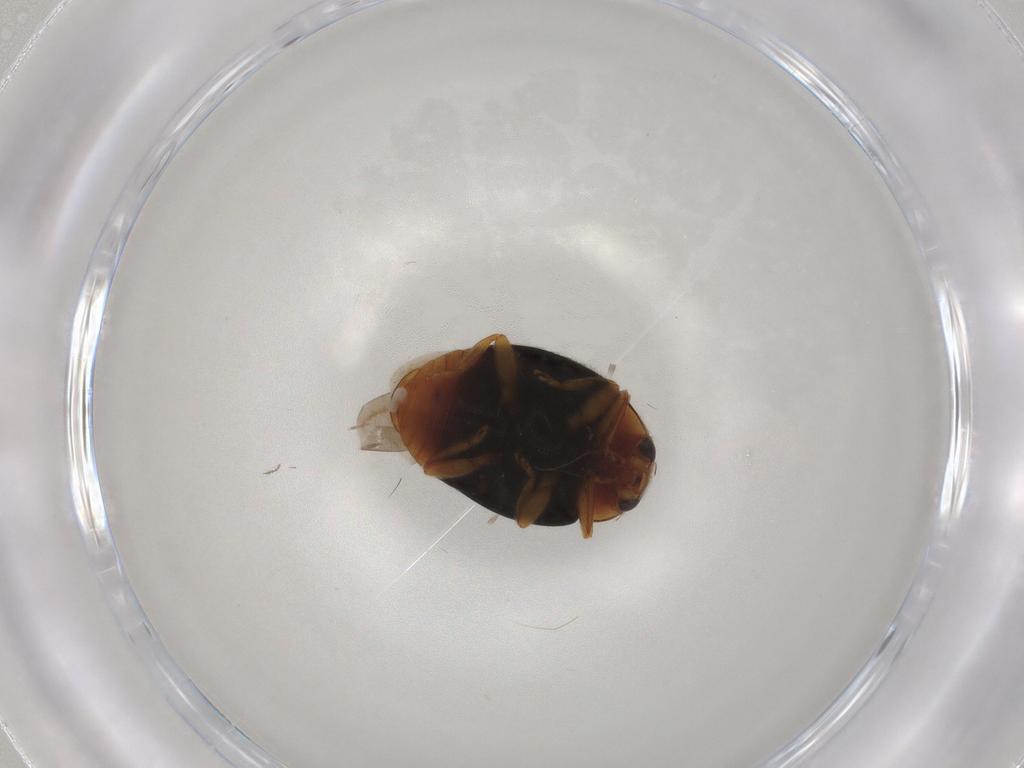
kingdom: Animalia
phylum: Arthropoda
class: Insecta
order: Coleoptera
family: Coccinellidae
